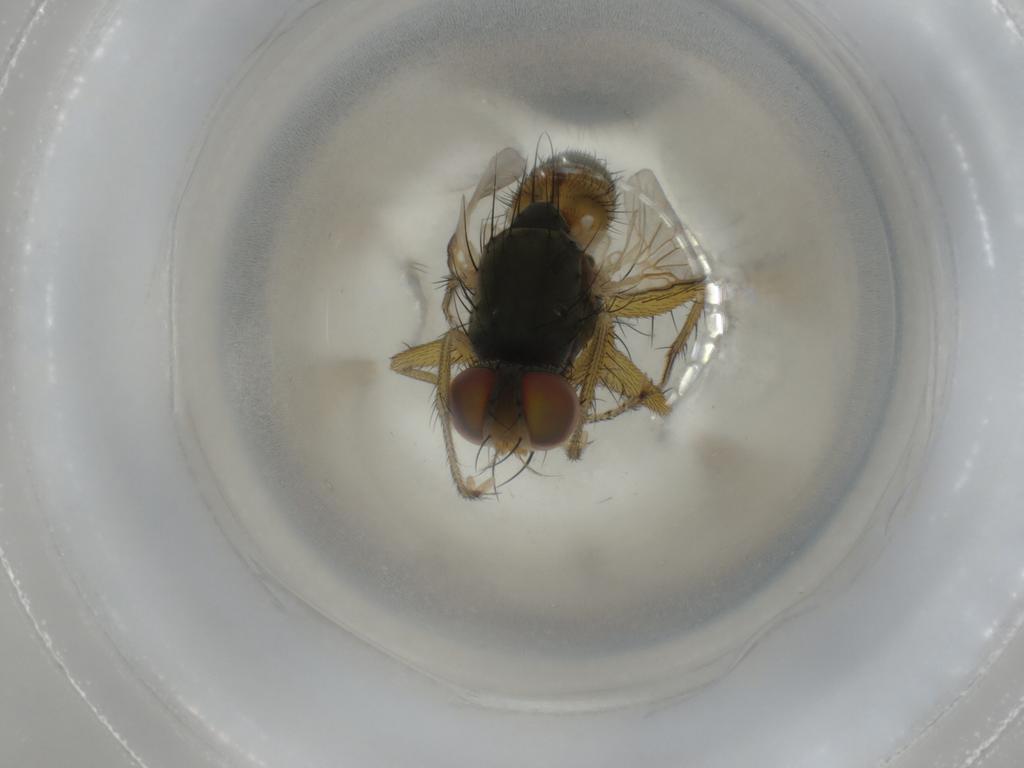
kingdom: Animalia
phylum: Arthropoda
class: Insecta
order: Diptera
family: Muscidae
